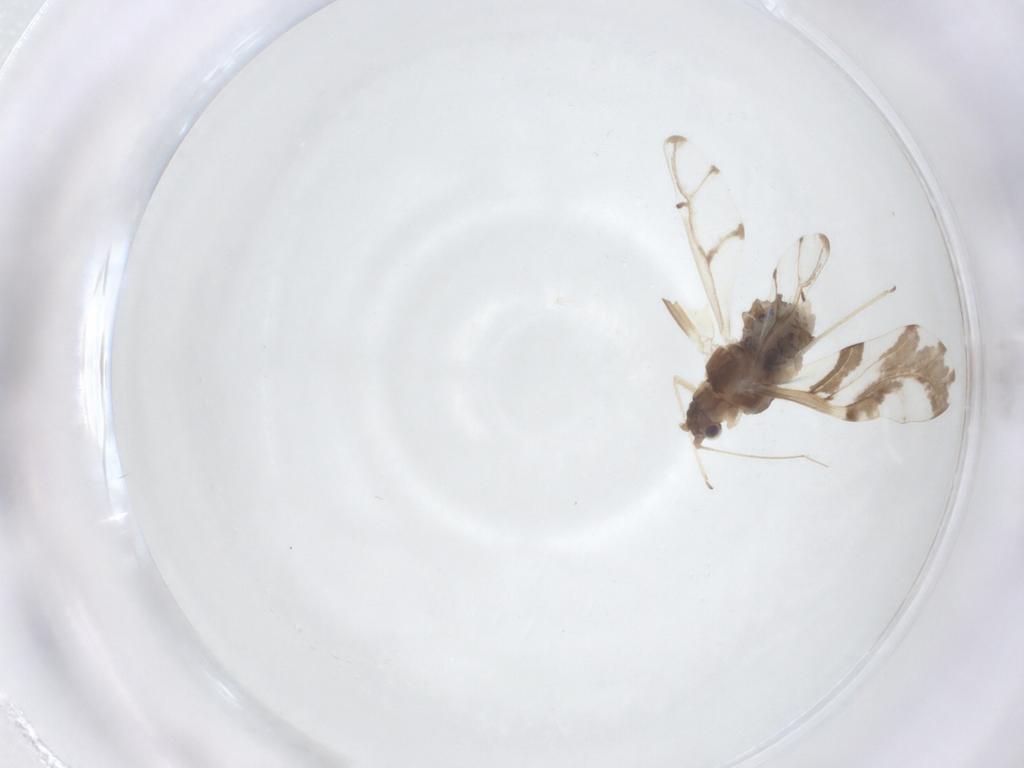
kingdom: Animalia
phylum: Arthropoda
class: Insecta
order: Hemiptera
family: Aphididae
